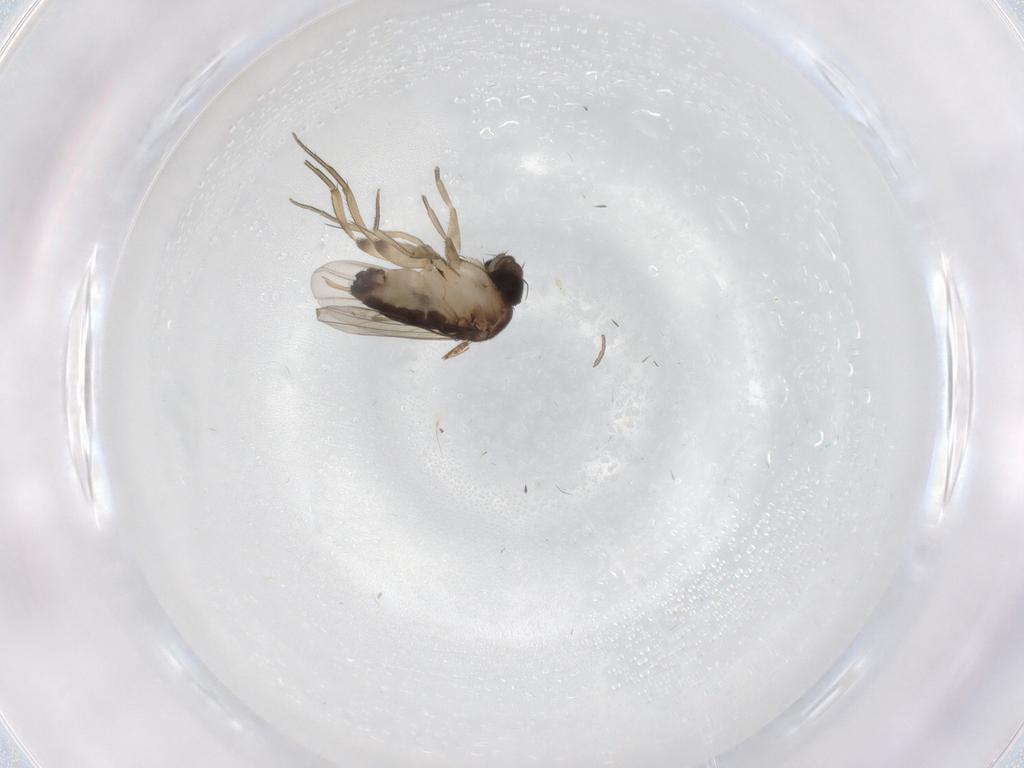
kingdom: Animalia
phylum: Arthropoda
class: Insecta
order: Diptera
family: Phoridae
